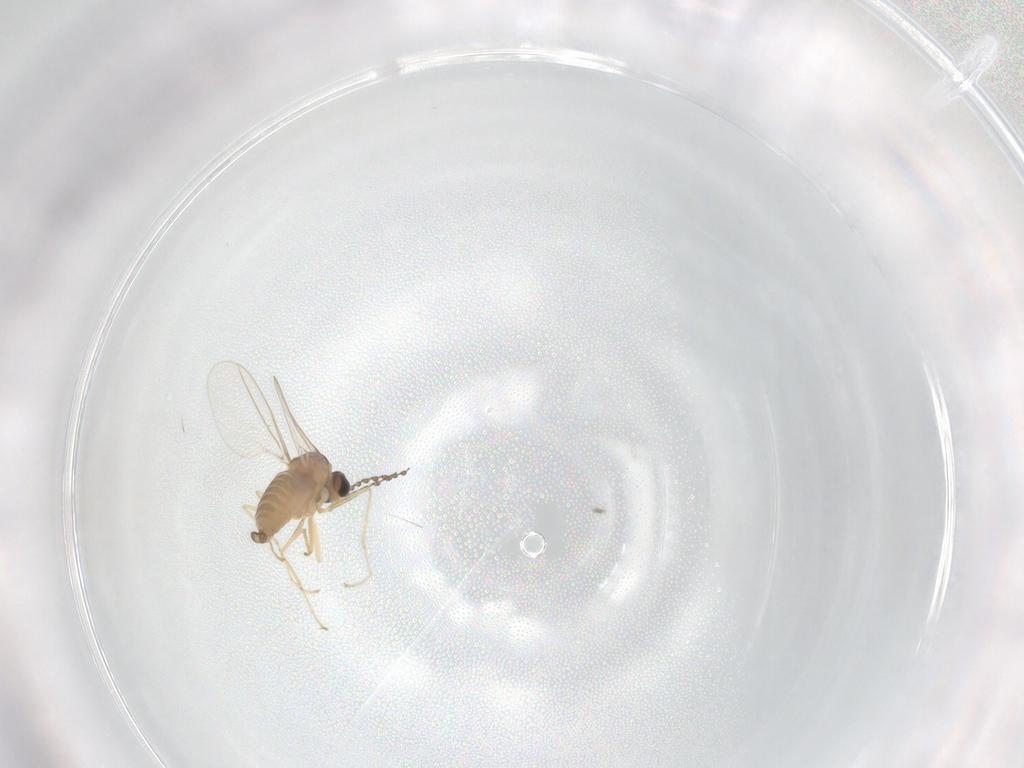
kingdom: Animalia
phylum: Arthropoda
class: Insecta
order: Diptera
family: Cecidomyiidae
